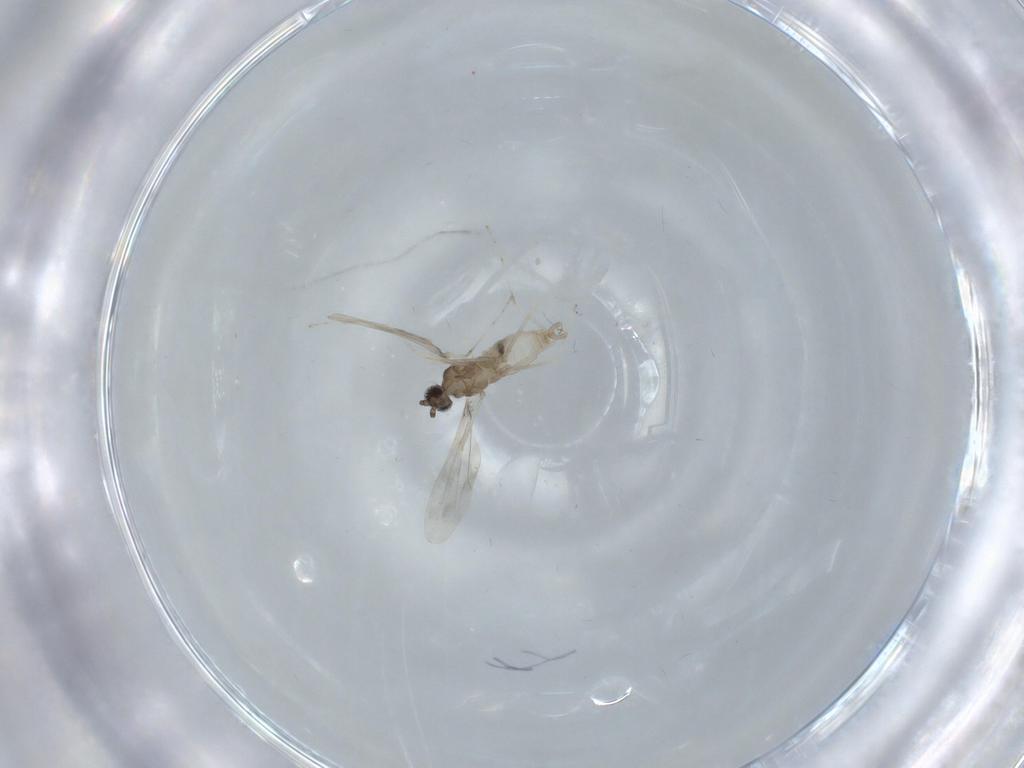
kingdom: Animalia
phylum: Arthropoda
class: Insecta
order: Diptera
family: Cecidomyiidae
